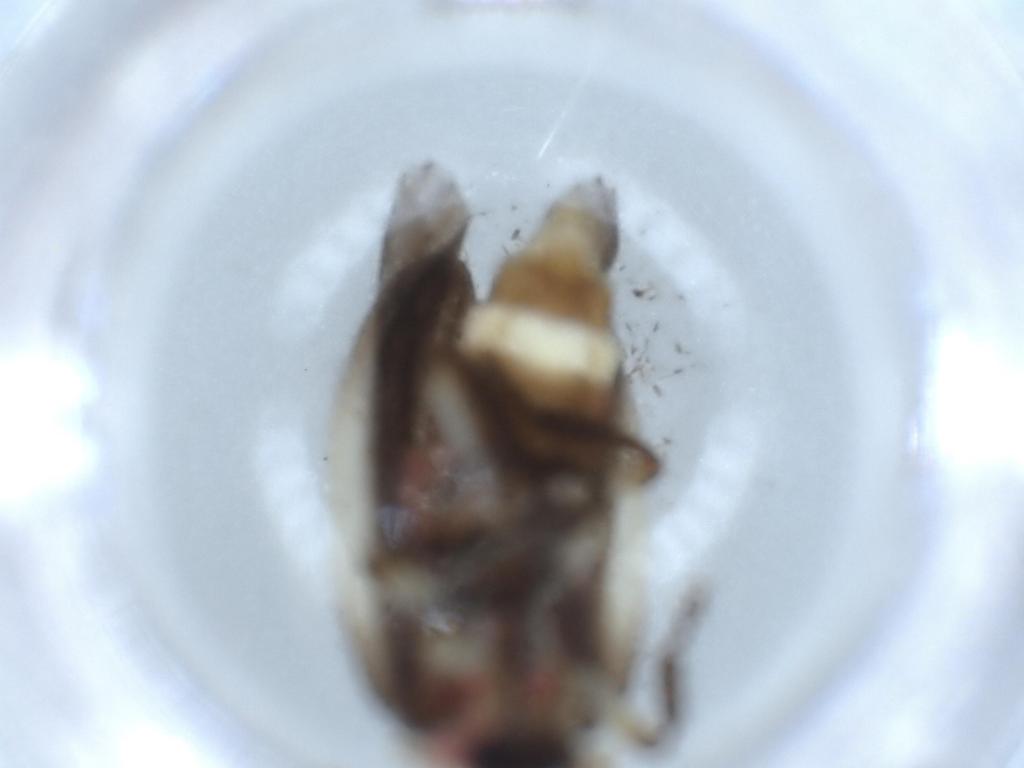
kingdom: Animalia
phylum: Arthropoda
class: Insecta
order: Coleoptera
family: Lampyridae
